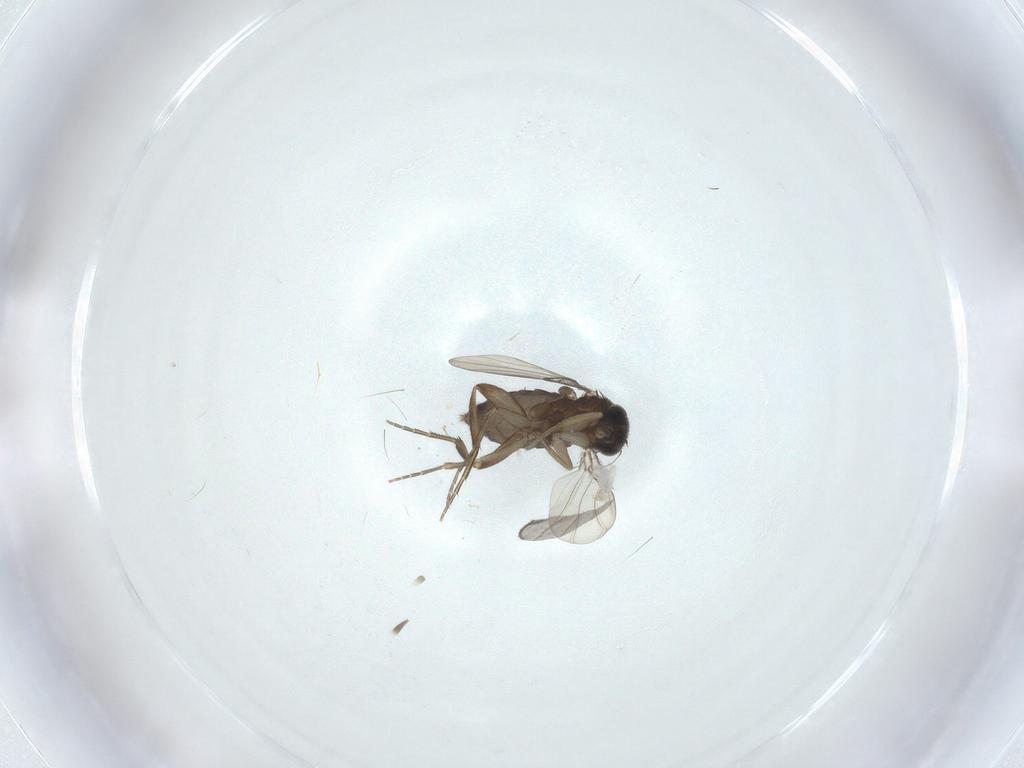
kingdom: Animalia
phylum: Arthropoda
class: Insecta
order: Diptera
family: Sciaridae
